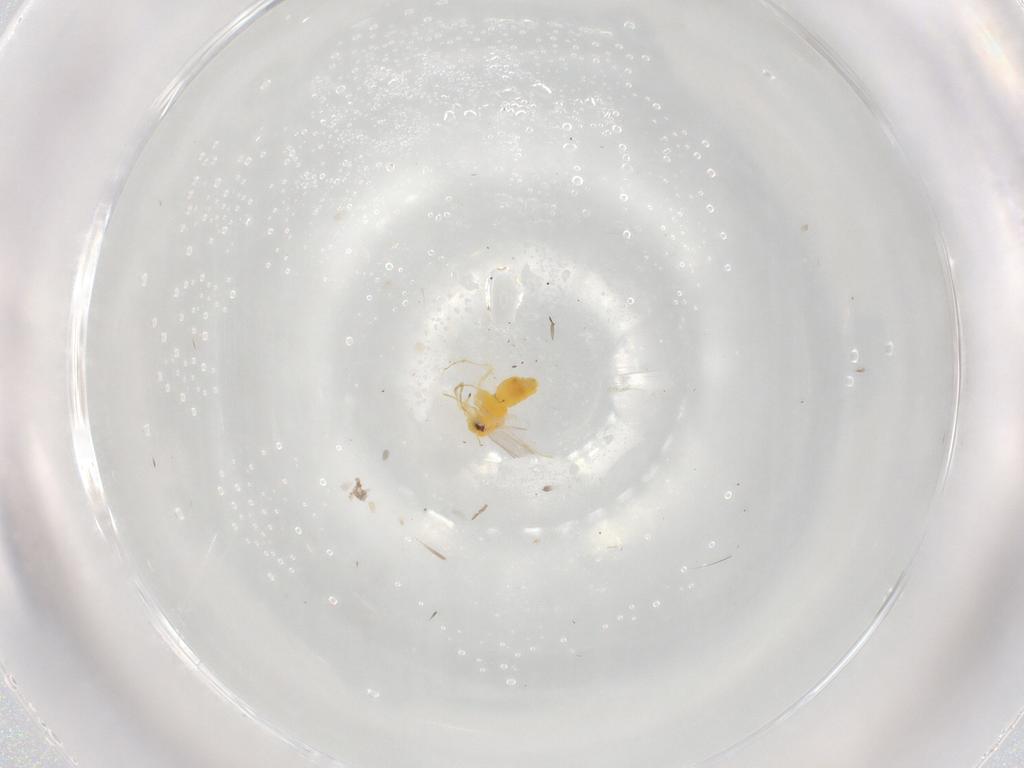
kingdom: Animalia
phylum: Arthropoda
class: Insecta
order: Hemiptera
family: Aleyrodidae
